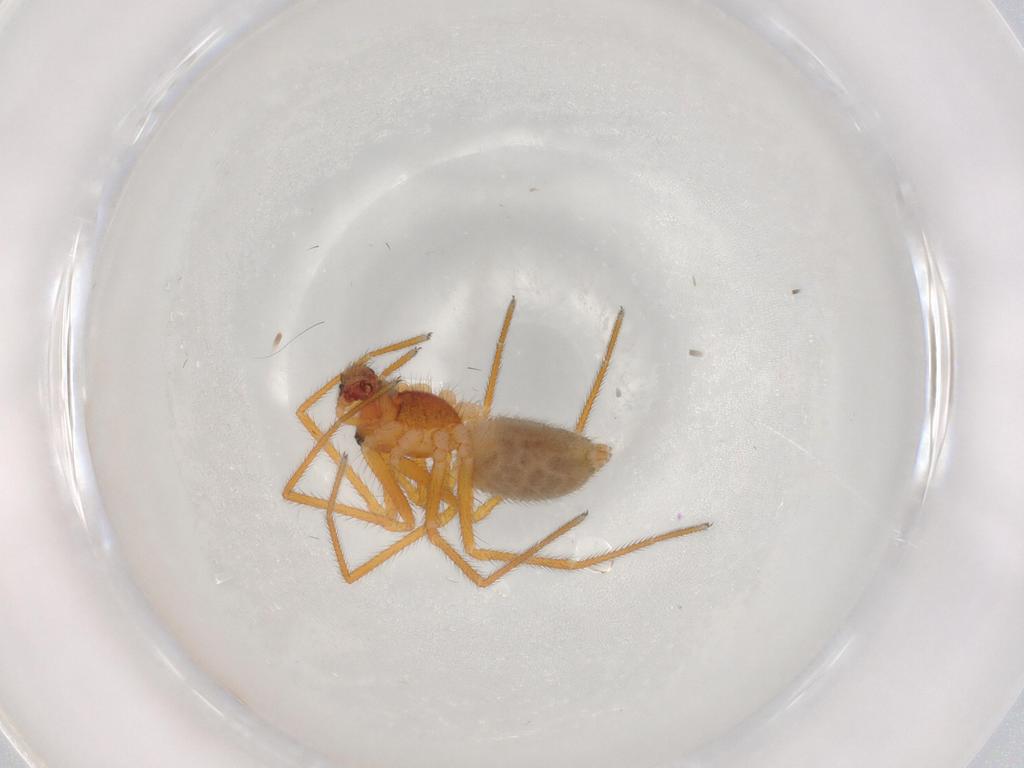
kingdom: Animalia
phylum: Arthropoda
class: Arachnida
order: Araneae
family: Linyphiidae
